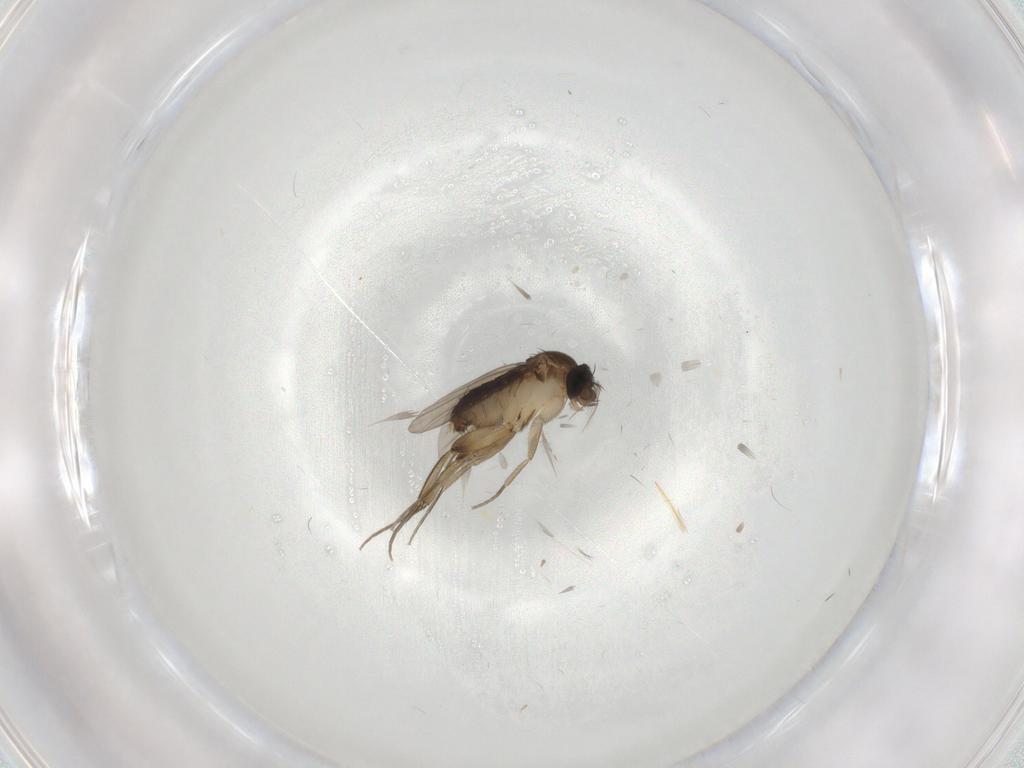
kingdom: Animalia
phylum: Arthropoda
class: Insecta
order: Diptera
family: Phoridae
